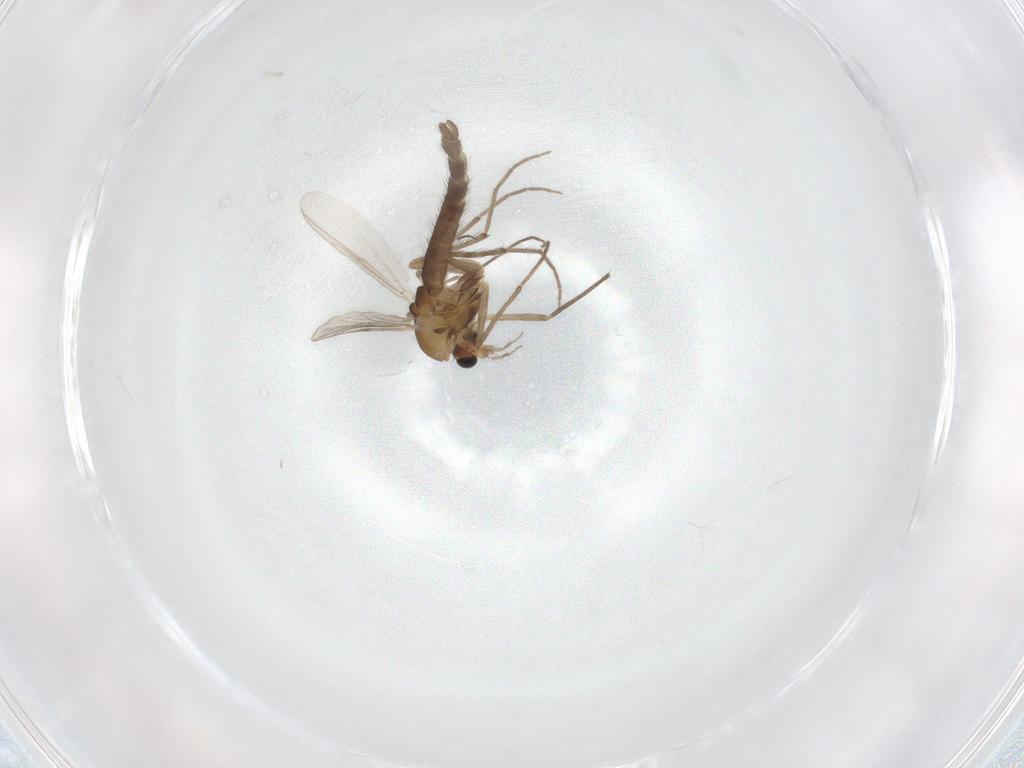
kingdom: Animalia
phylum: Arthropoda
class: Insecta
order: Diptera
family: Chironomidae
